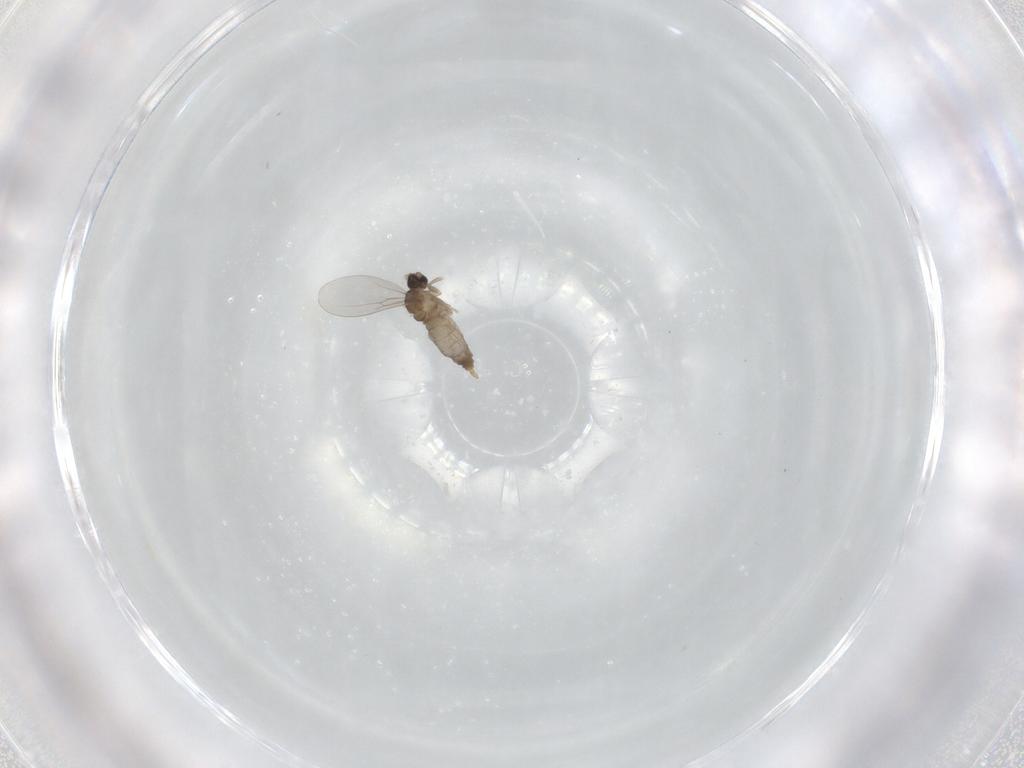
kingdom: Animalia
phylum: Arthropoda
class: Insecta
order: Diptera
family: Cecidomyiidae
